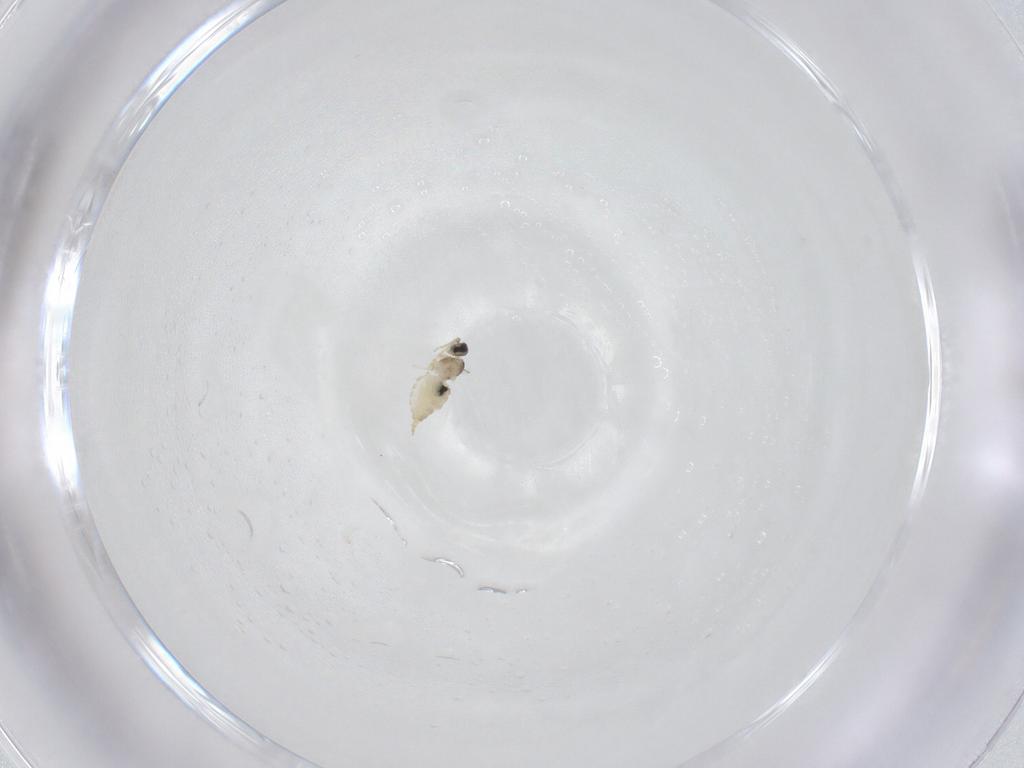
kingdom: Animalia
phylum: Arthropoda
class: Insecta
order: Diptera
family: Cecidomyiidae
